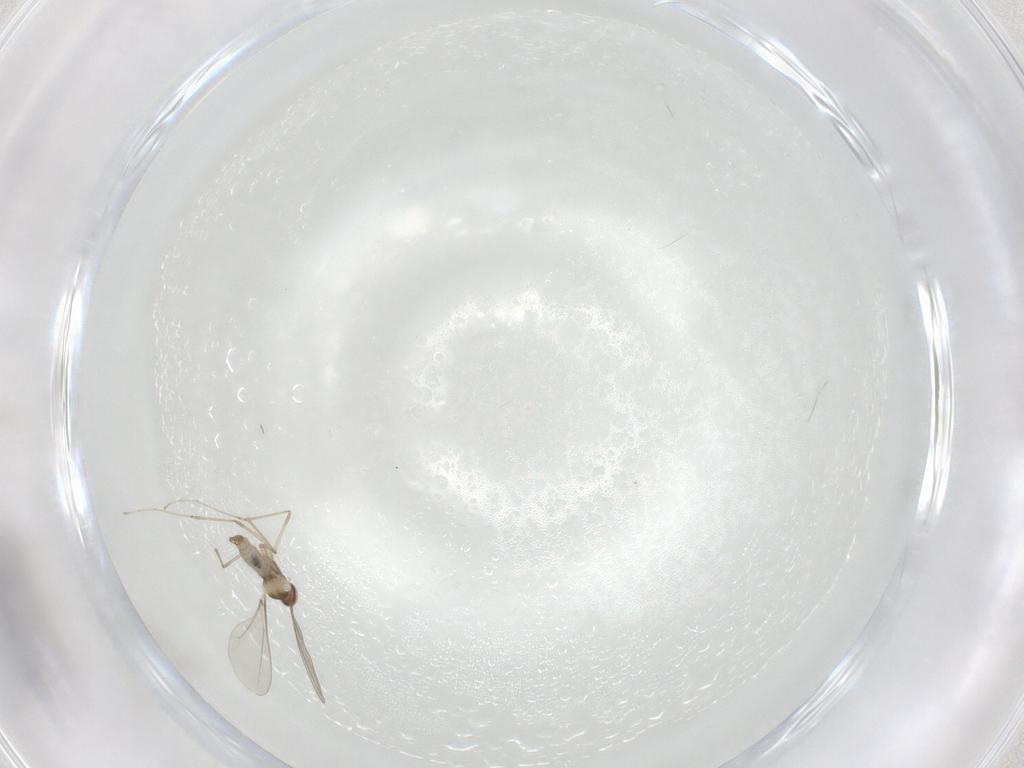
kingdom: Animalia
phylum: Arthropoda
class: Insecta
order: Diptera
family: Cecidomyiidae
